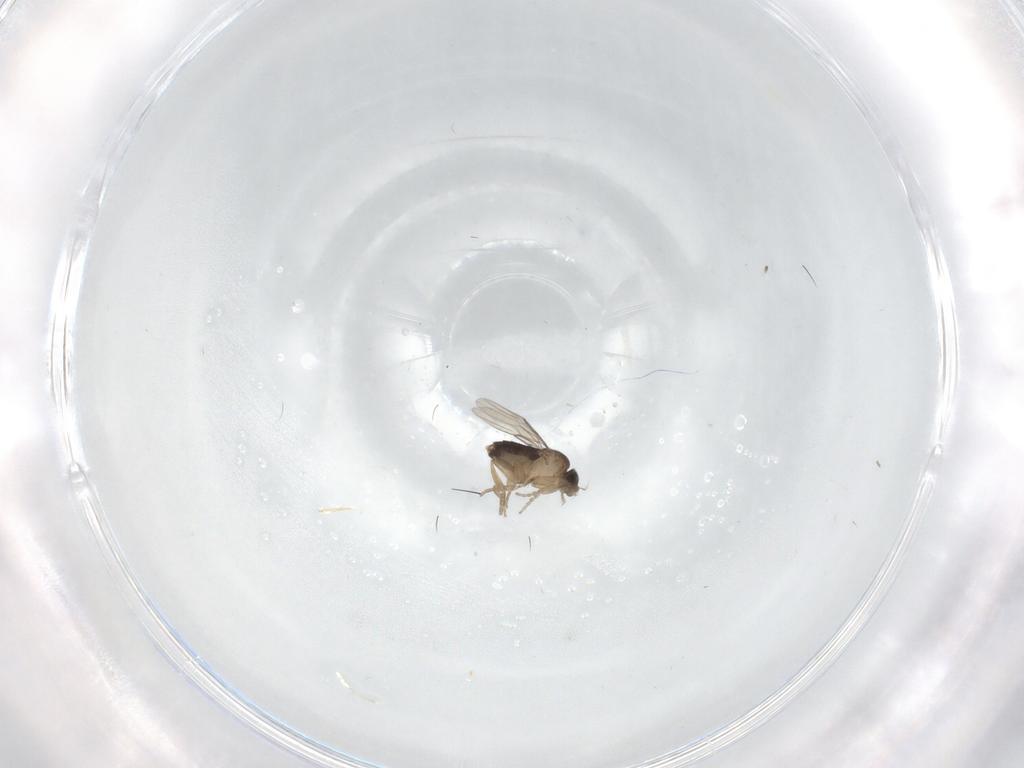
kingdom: Animalia
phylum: Arthropoda
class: Insecta
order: Diptera
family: Phoridae
